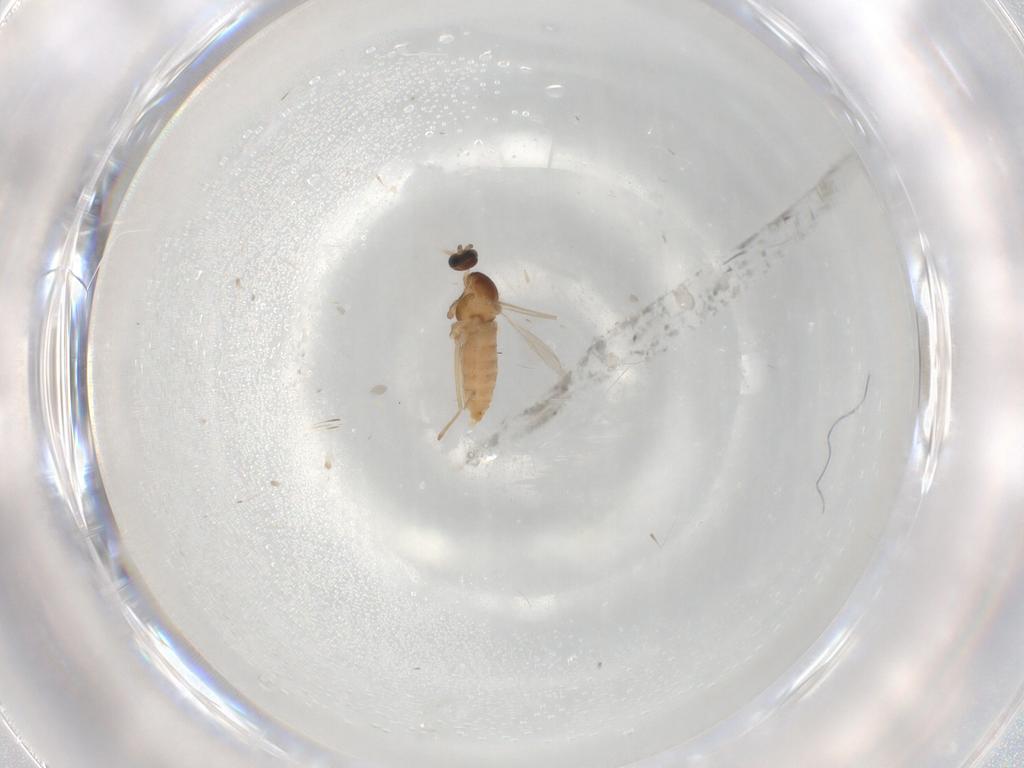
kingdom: Animalia
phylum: Arthropoda
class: Insecta
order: Diptera
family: Cecidomyiidae
